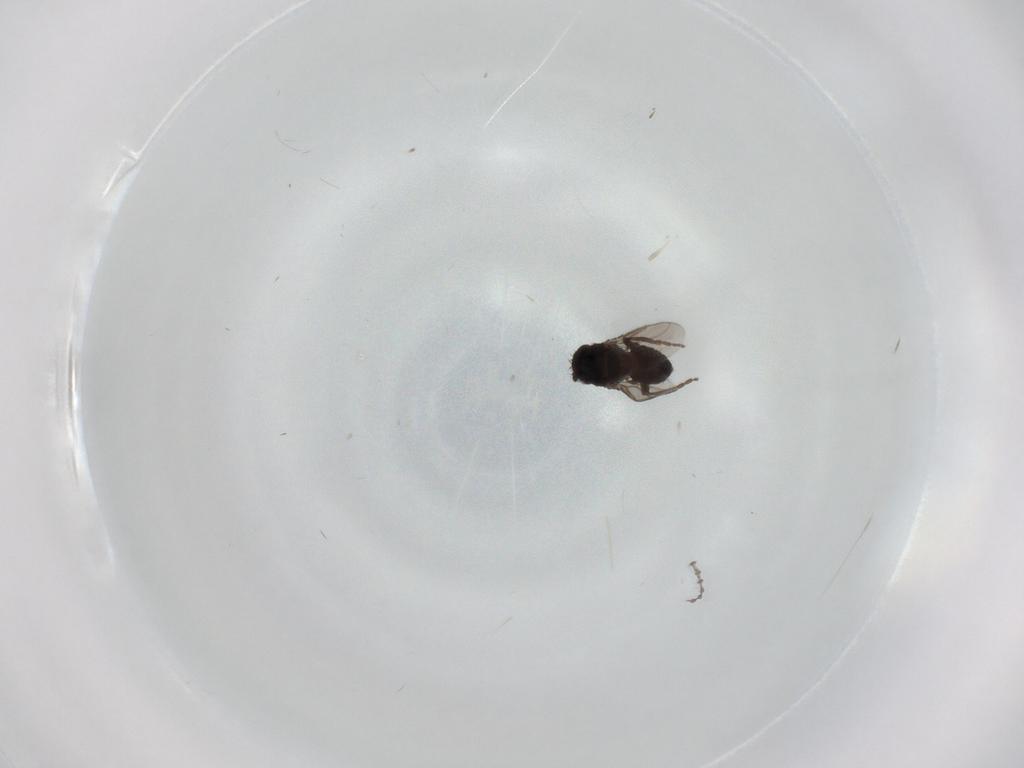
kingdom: Animalia
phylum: Arthropoda
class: Insecta
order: Diptera
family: Cecidomyiidae
